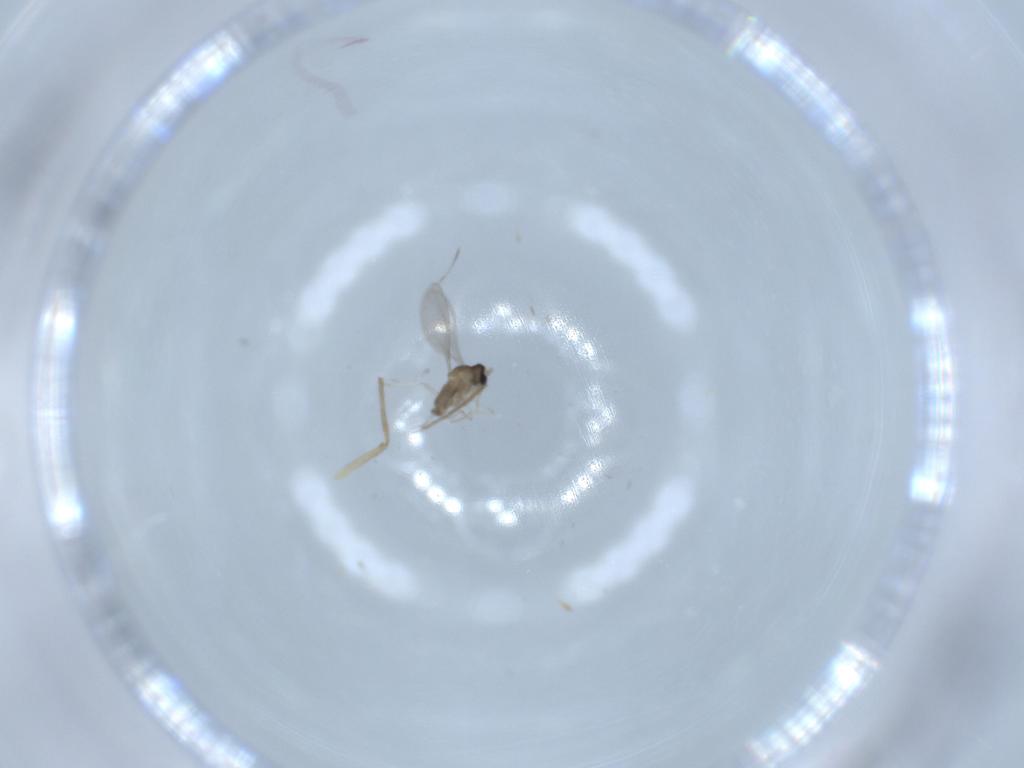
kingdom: Animalia
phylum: Arthropoda
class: Insecta
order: Diptera
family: Cecidomyiidae
